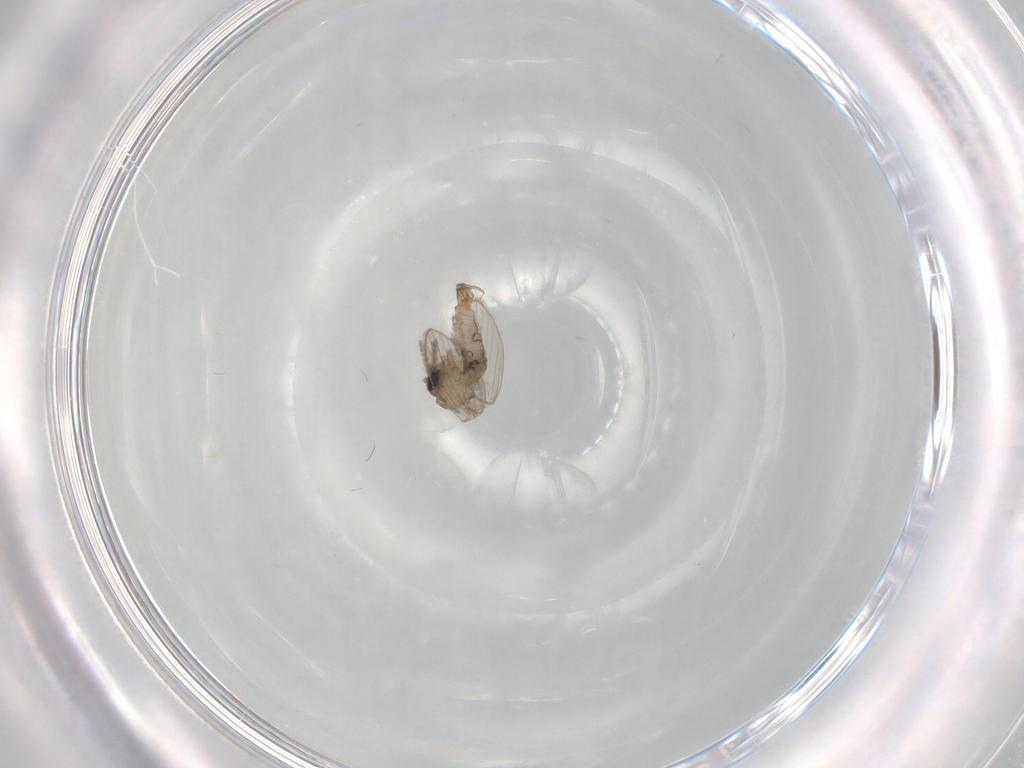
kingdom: Animalia
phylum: Arthropoda
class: Insecta
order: Diptera
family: Psychodidae
